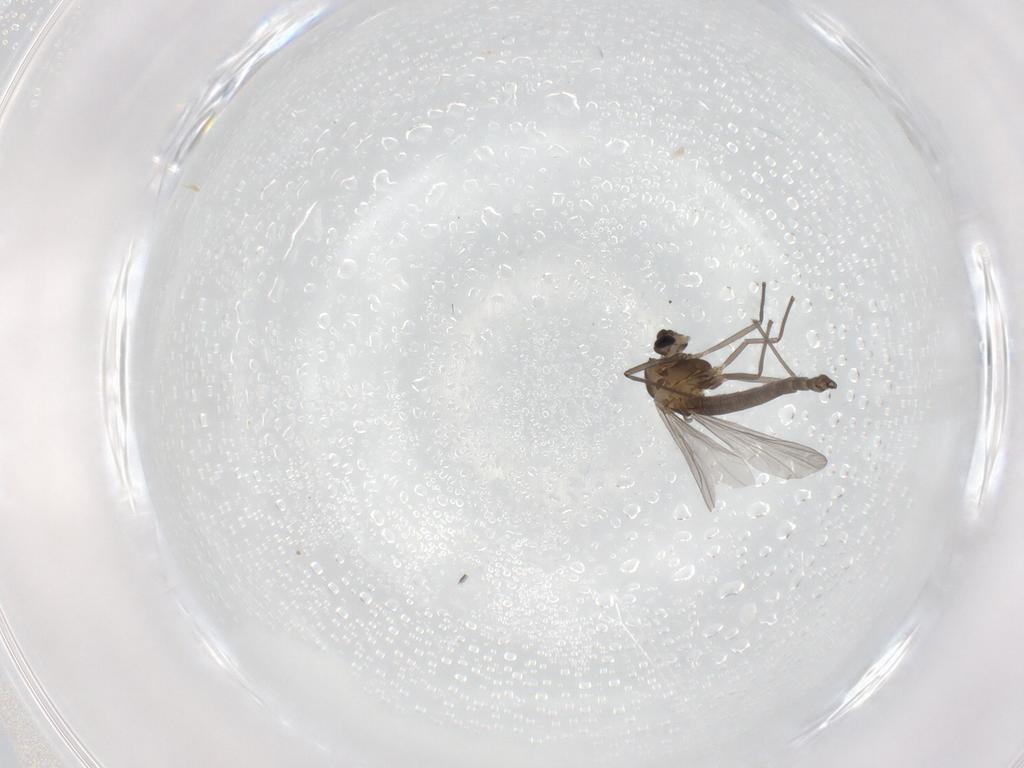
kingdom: Animalia
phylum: Arthropoda
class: Insecta
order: Diptera
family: Chironomidae
